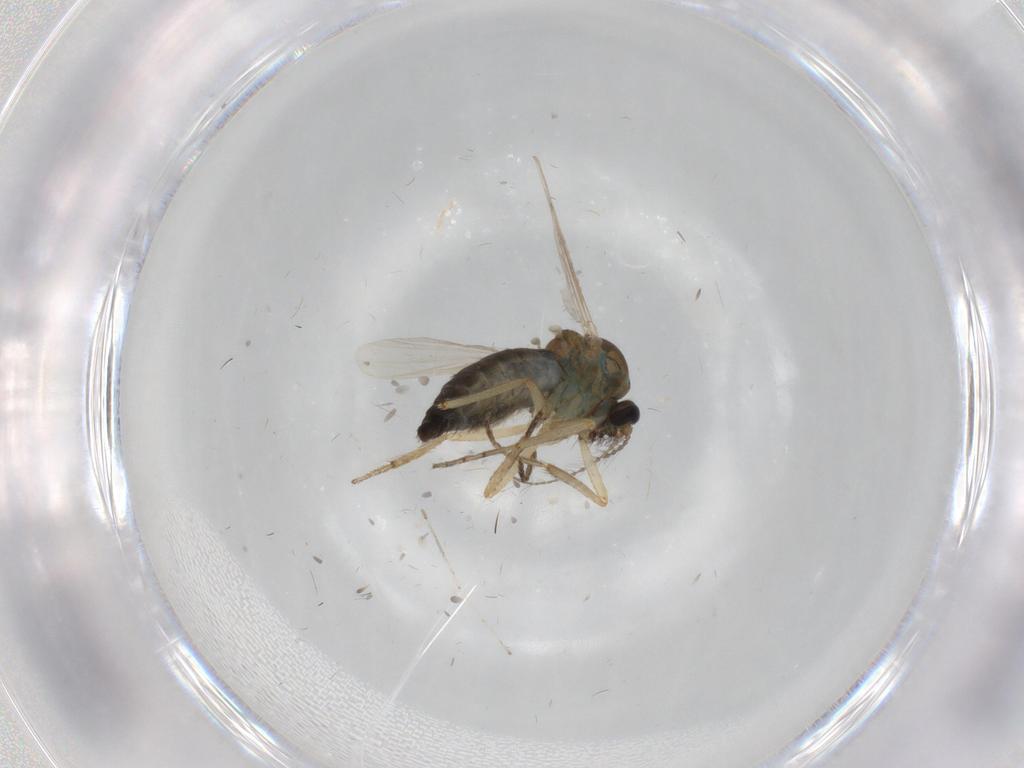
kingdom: Animalia
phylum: Arthropoda
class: Insecta
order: Diptera
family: Ceratopogonidae
